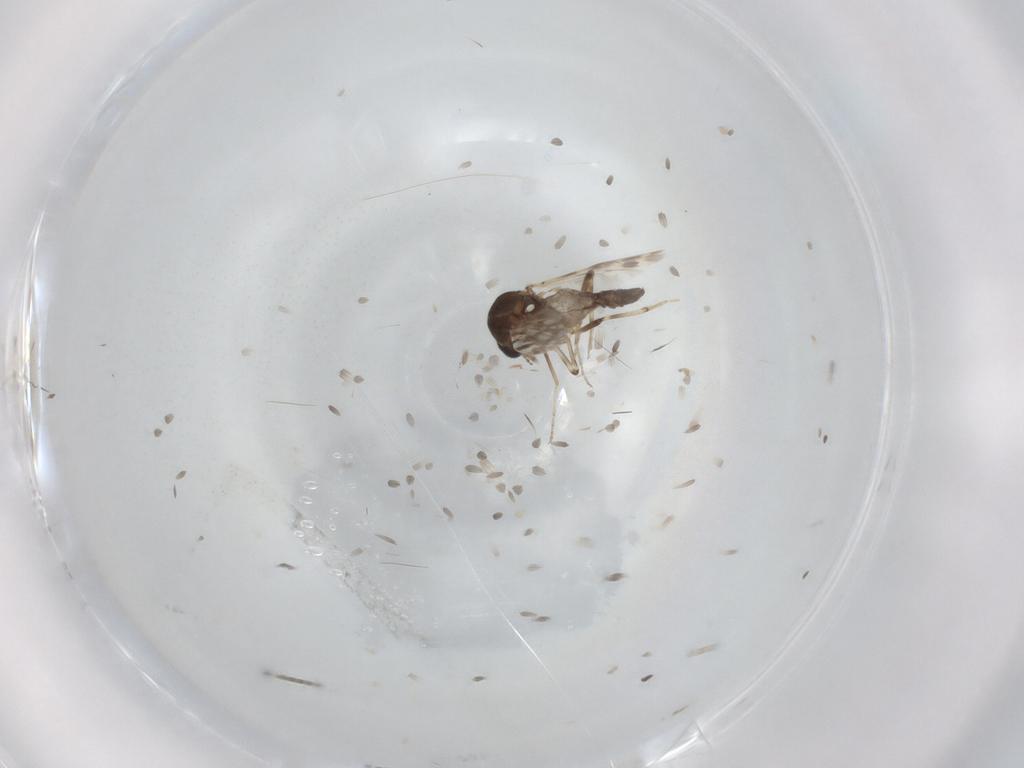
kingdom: Animalia
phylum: Arthropoda
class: Insecta
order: Diptera
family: Ceratopogonidae
